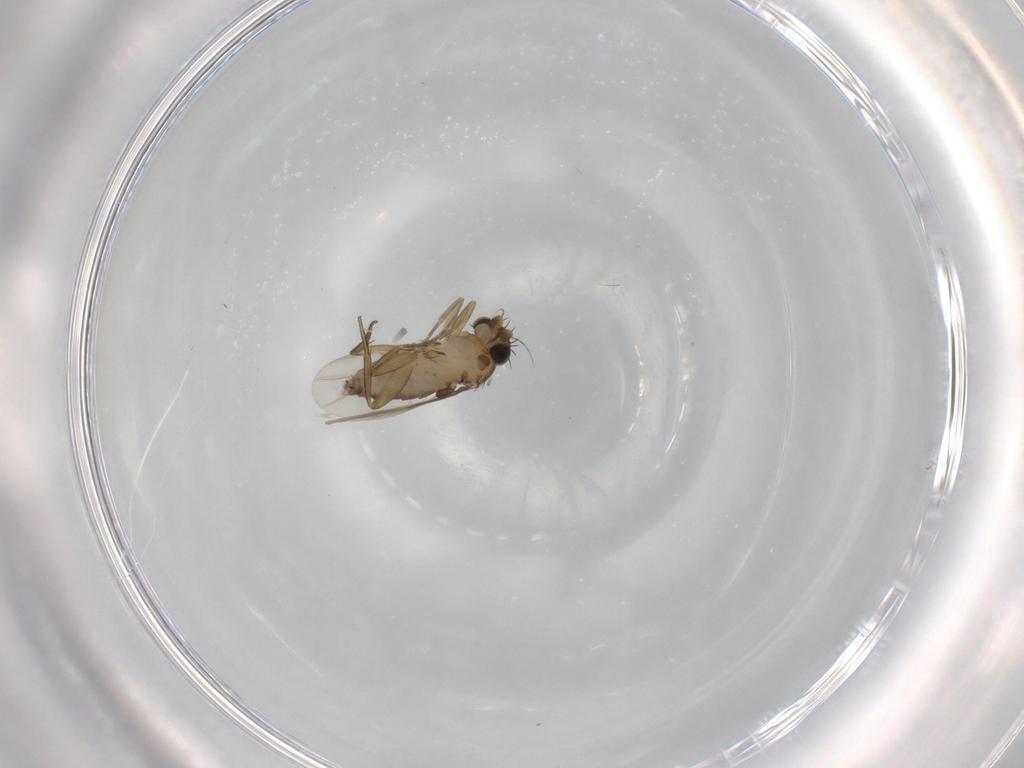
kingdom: Animalia
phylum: Arthropoda
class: Insecta
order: Diptera
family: Phoridae
